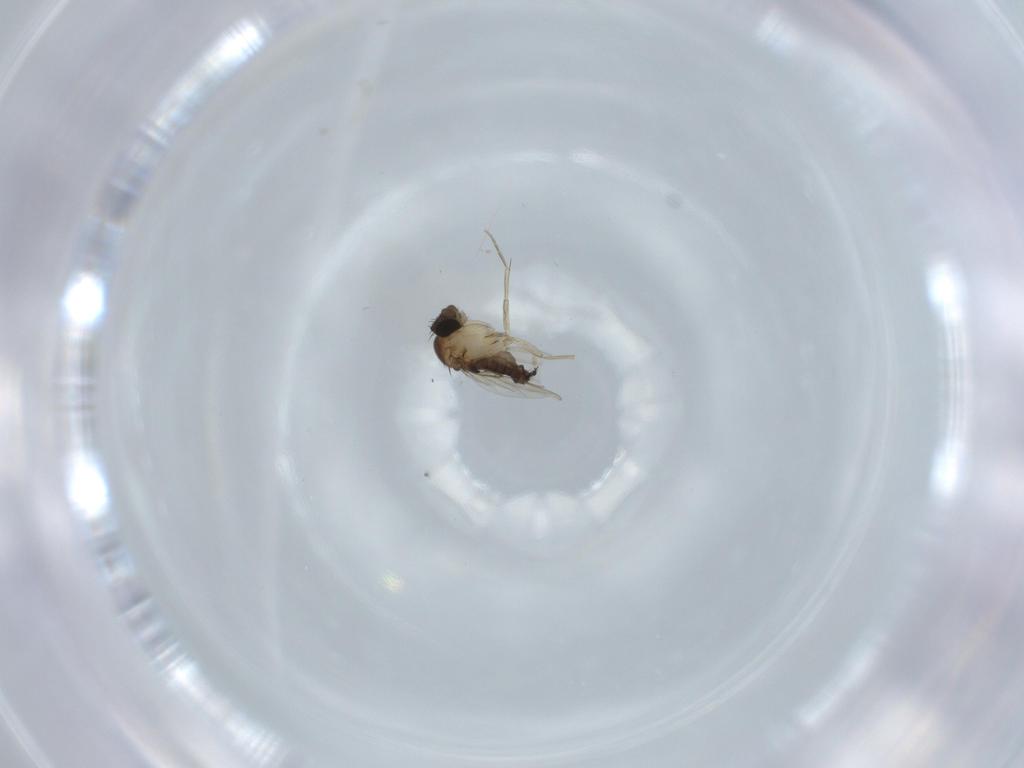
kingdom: Animalia
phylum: Arthropoda
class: Insecta
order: Diptera
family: Phoridae
